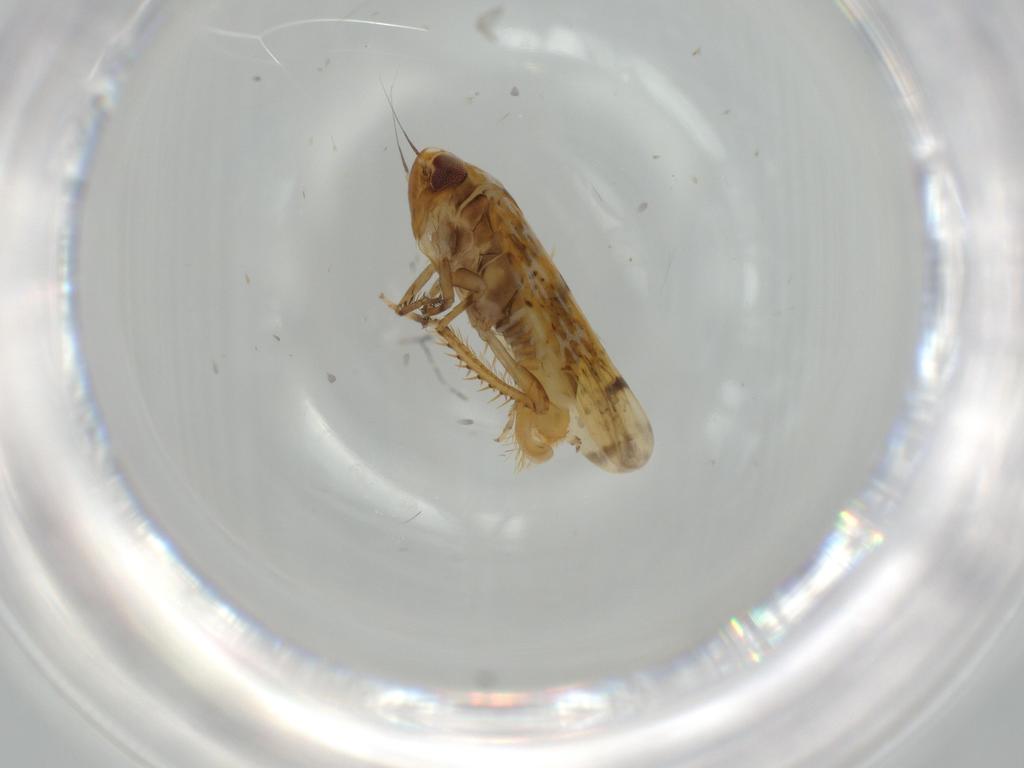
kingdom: Animalia
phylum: Arthropoda
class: Insecta
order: Hemiptera
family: Cicadellidae
